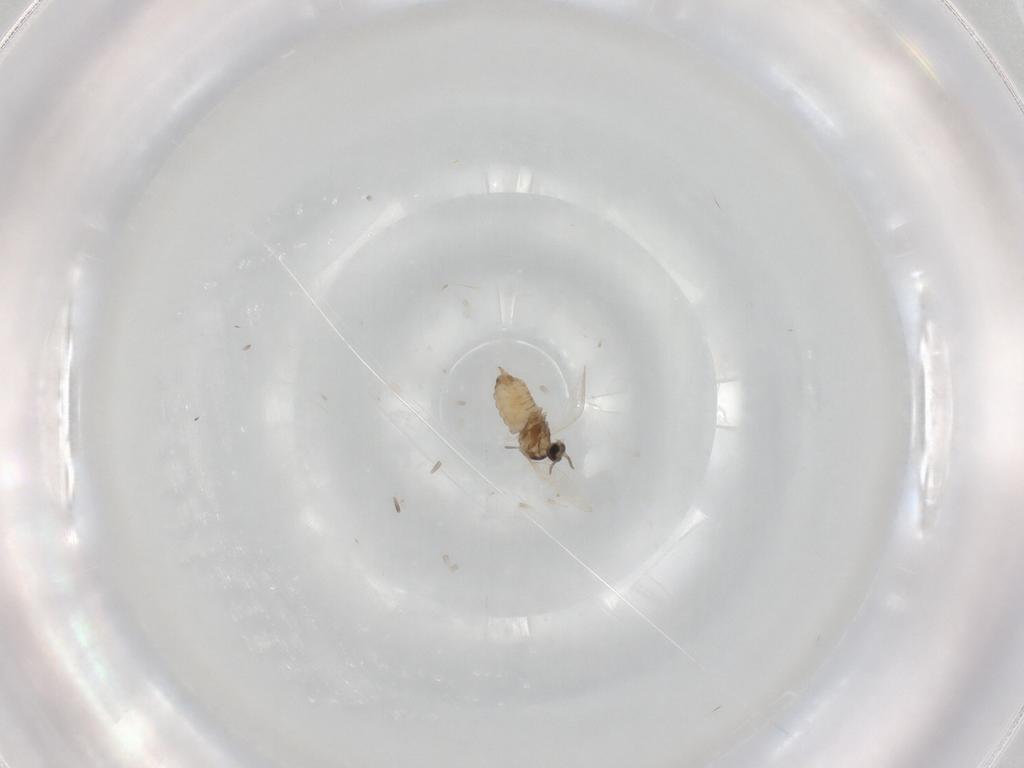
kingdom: Animalia
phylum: Arthropoda
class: Insecta
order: Diptera
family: Cecidomyiidae
